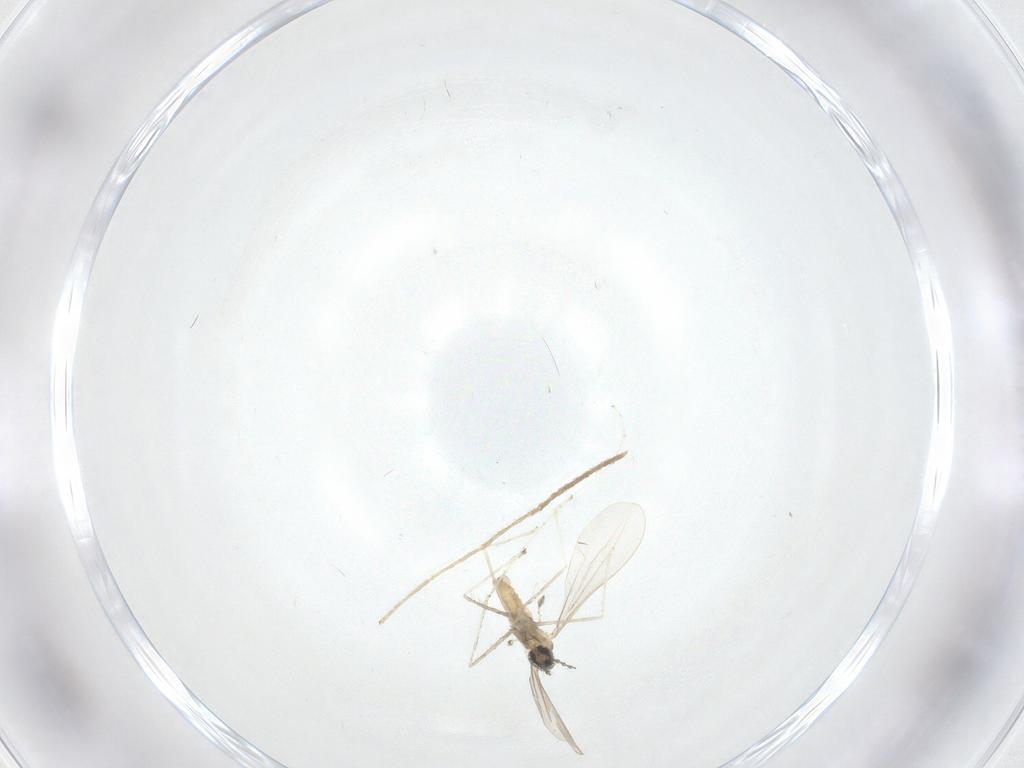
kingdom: Animalia
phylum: Arthropoda
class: Insecta
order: Diptera
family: Cecidomyiidae
